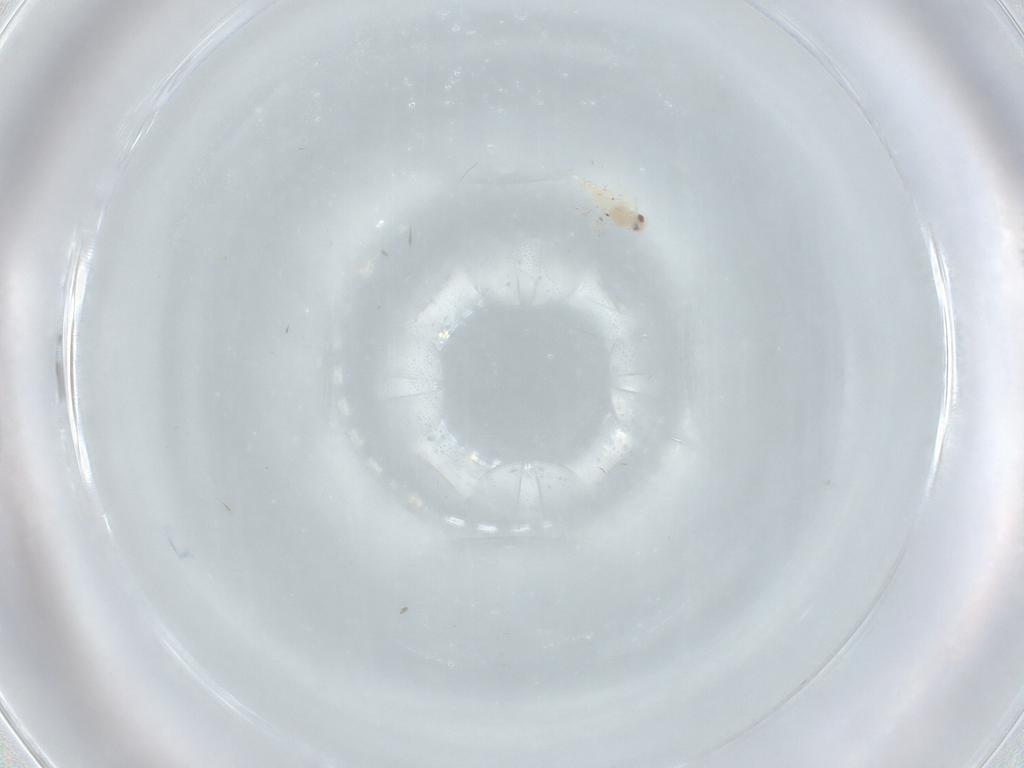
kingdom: Animalia
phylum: Arthropoda
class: Insecta
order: Hemiptera
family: Aleyrodidae
